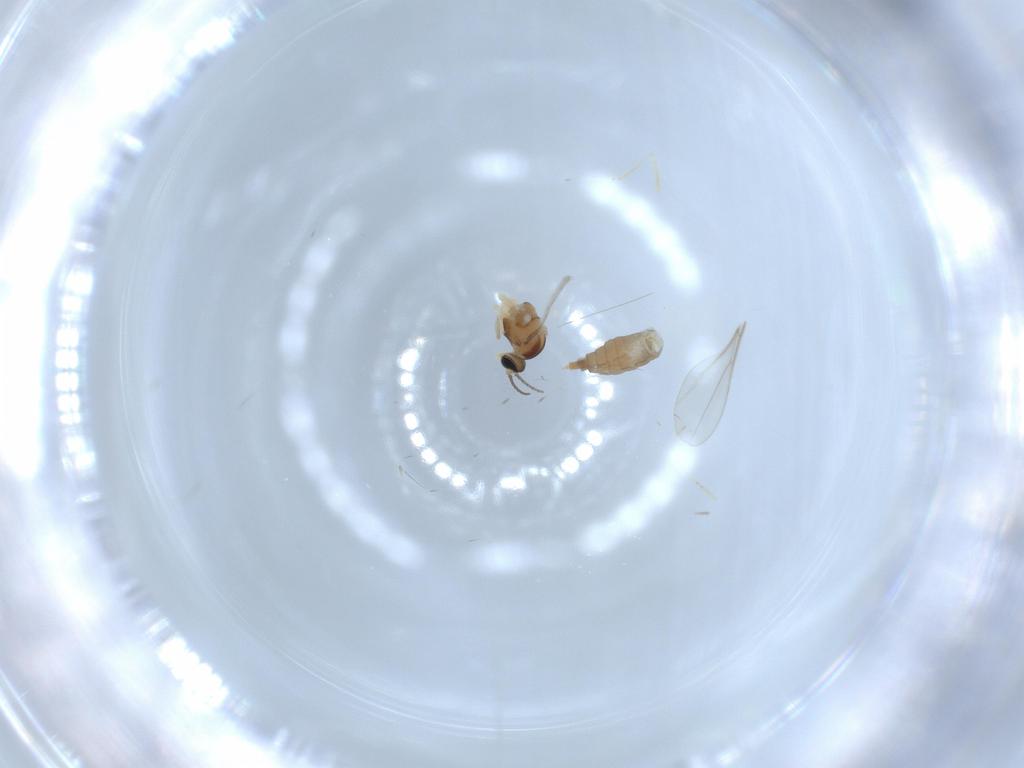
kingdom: Animalia
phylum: Arthropoda
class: Insecta
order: Diptera
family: Chironomidae
